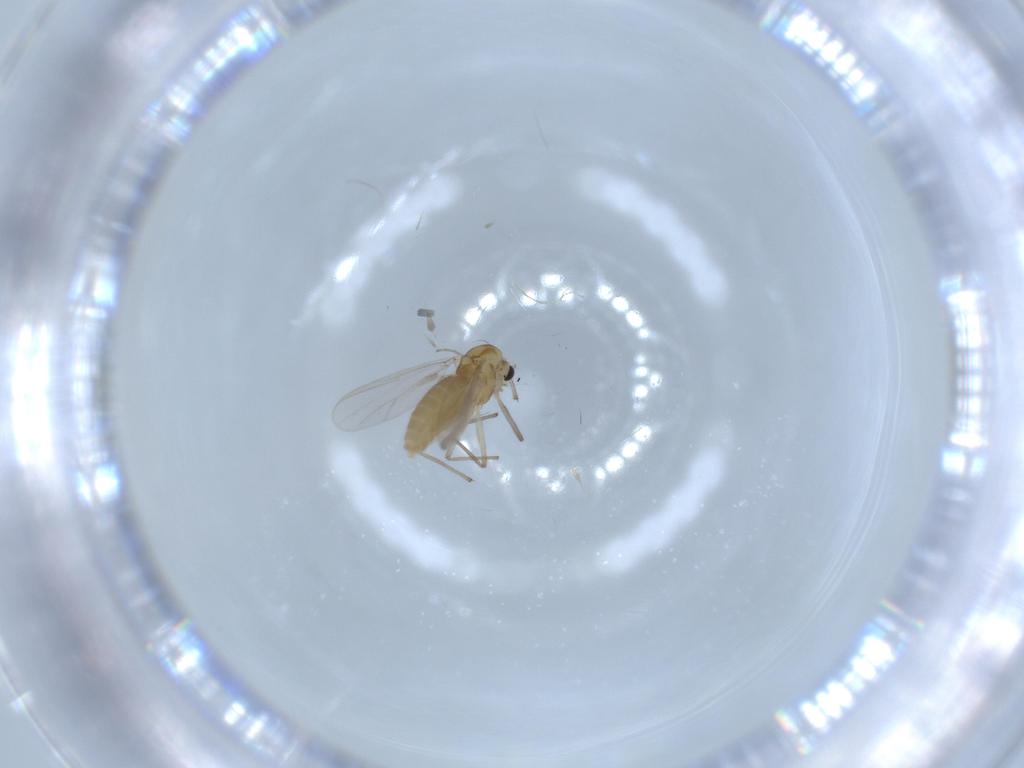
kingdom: Animalia
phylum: Arthropoda
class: Insecta
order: Diptera
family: Chironomidae
